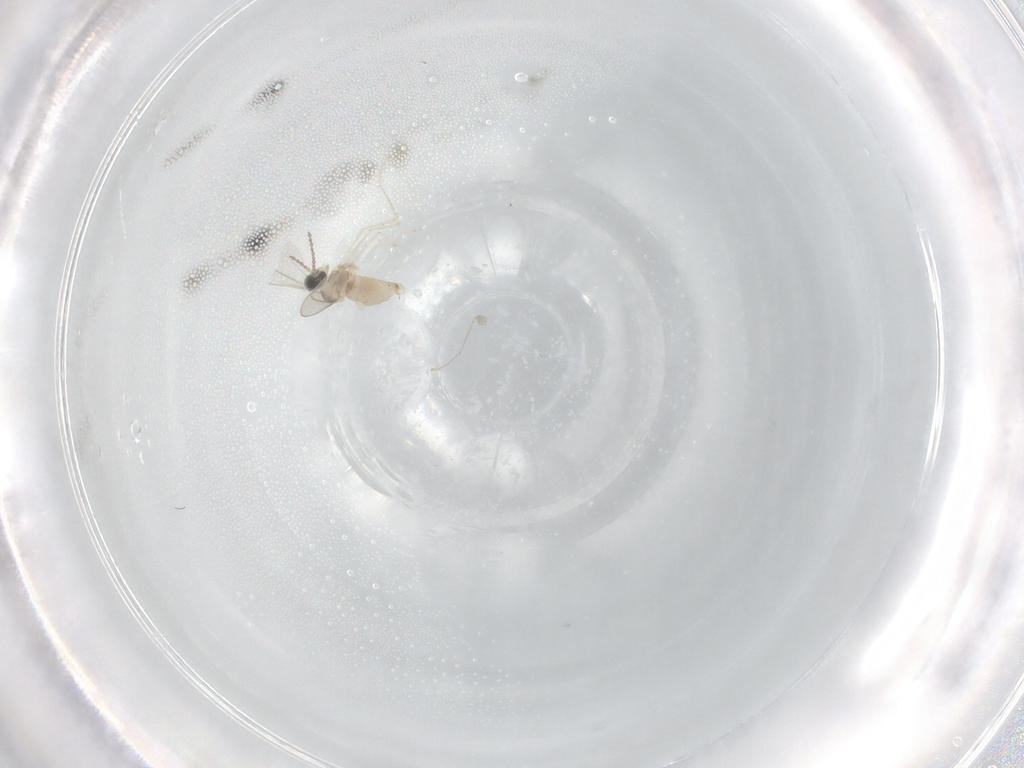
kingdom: Animalia
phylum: Arthropoda
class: Insecta
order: Diptera
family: Cecidomyiidae
